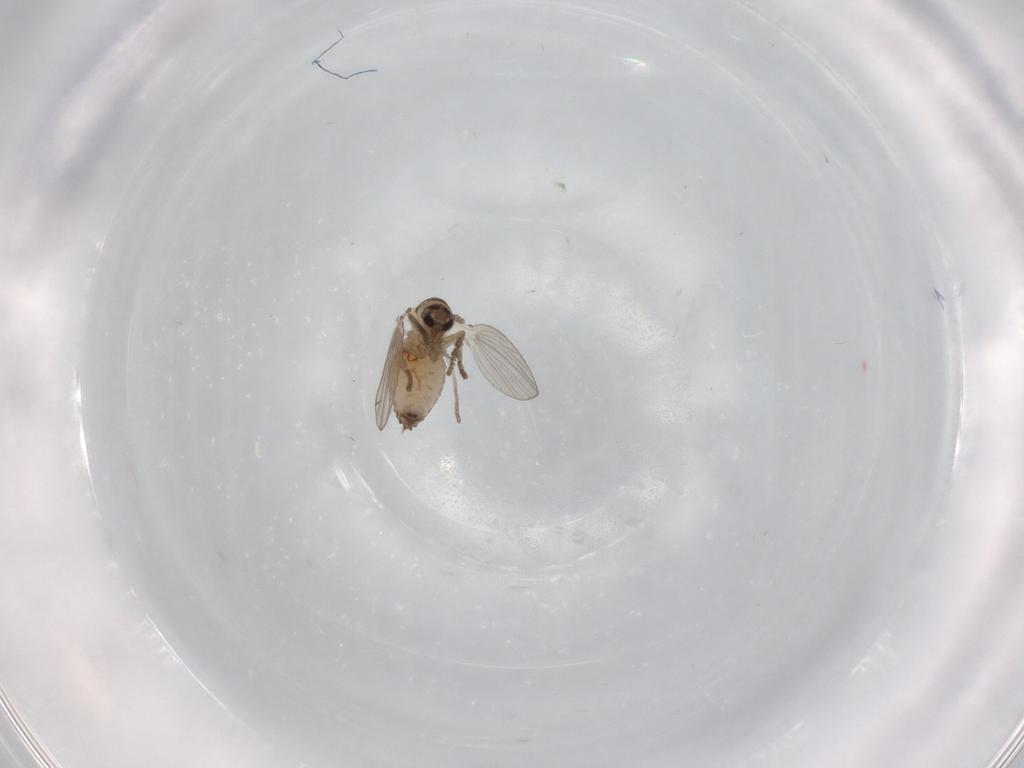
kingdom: Animalia
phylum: Arthropoda
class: Insecta
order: Diptera
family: Psychodidae
